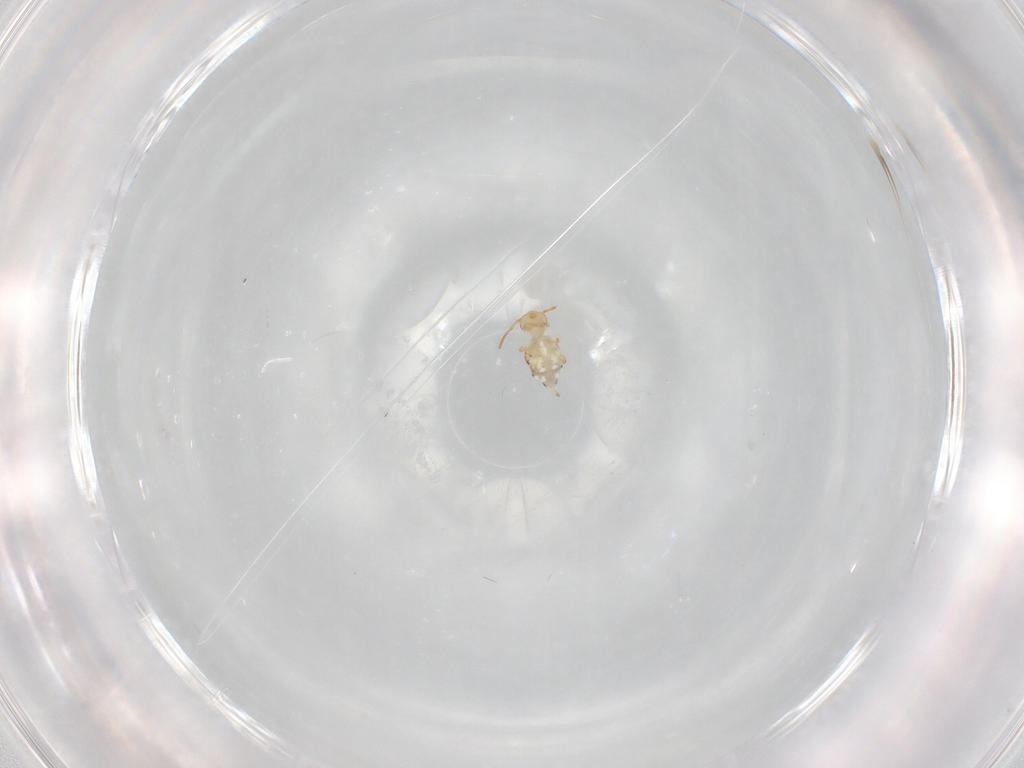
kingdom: Animalia
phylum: Arthropoda
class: Collembola
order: Symphypleona
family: Bourletiellidae
